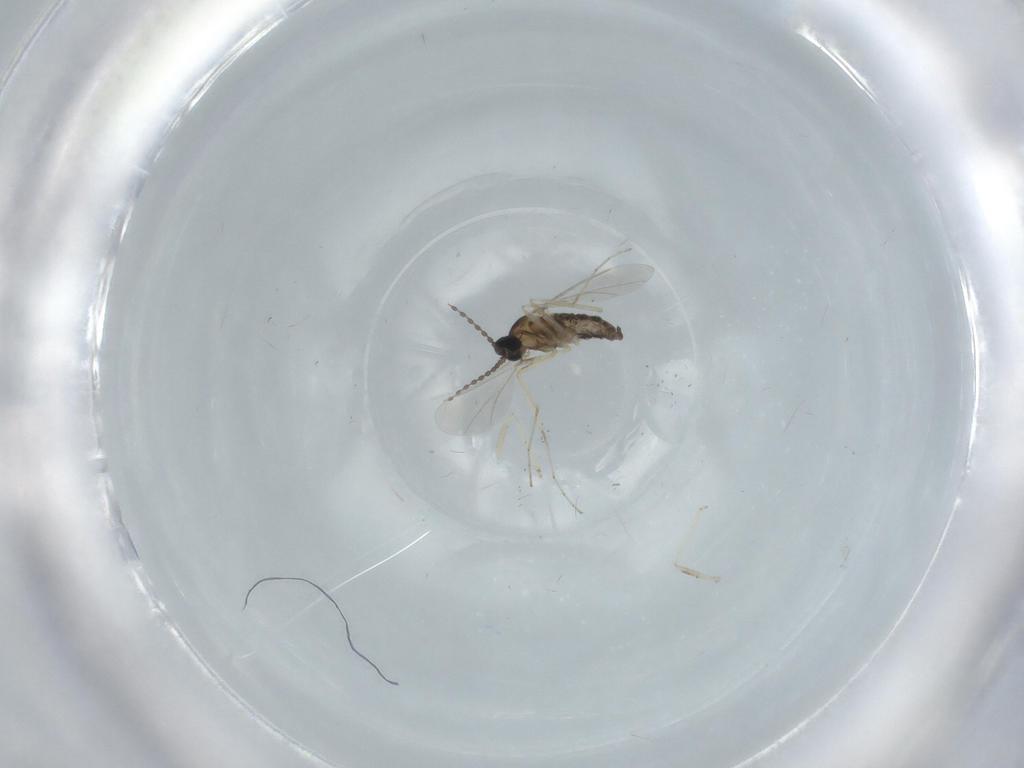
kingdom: Animalia
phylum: Arthropoda
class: Insecta
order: Diptera
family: Cecidomyiidae
